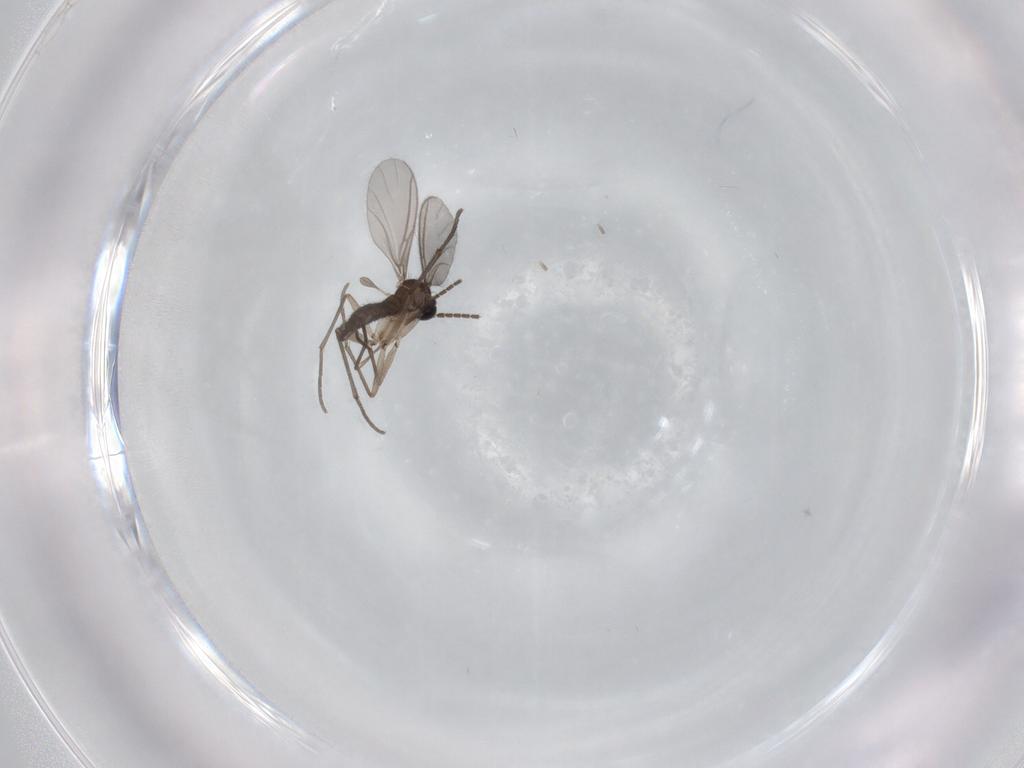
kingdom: Animalia
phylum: Arthropoda
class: Insecta
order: Diptera
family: Sciaridae
